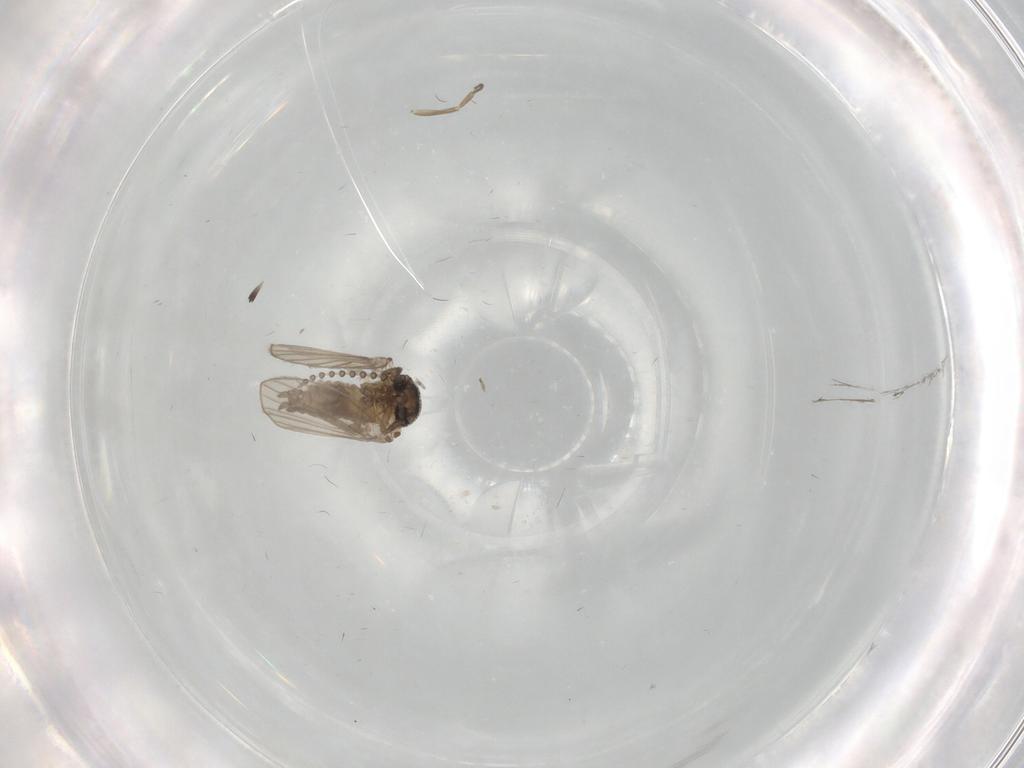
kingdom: Animalia
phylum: Arthropoda
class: Insecta
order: Diptera
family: Psychodidae
